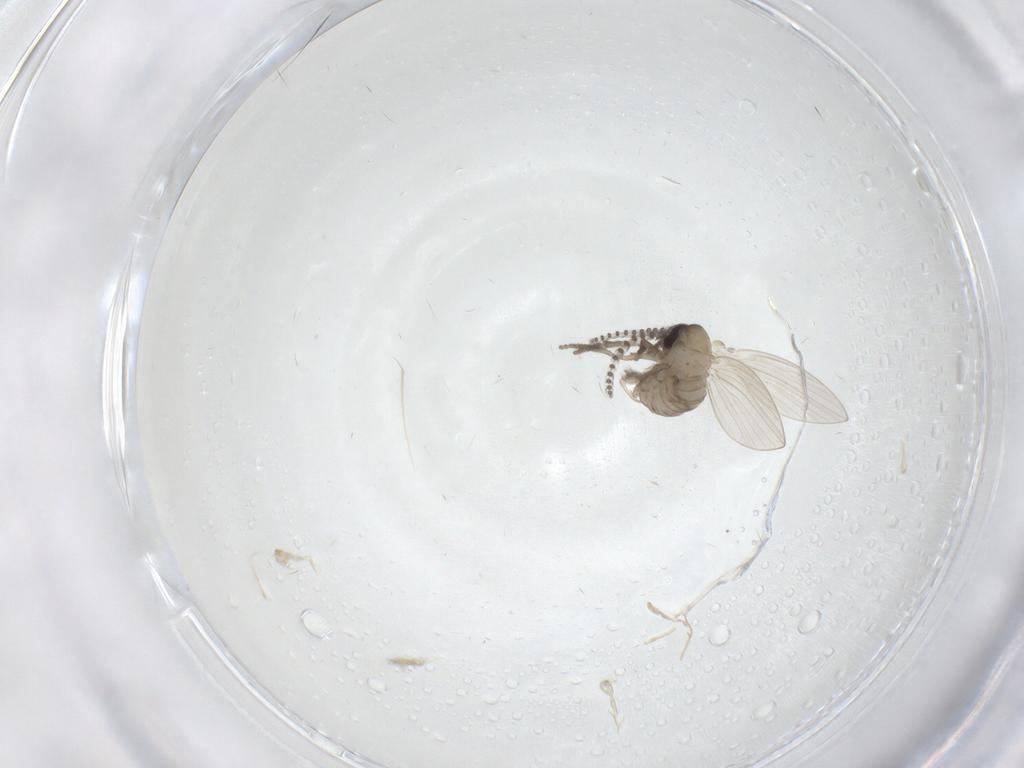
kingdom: Animalia
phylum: Arthropoda
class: Insecta
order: Diptera
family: Psychodidae
